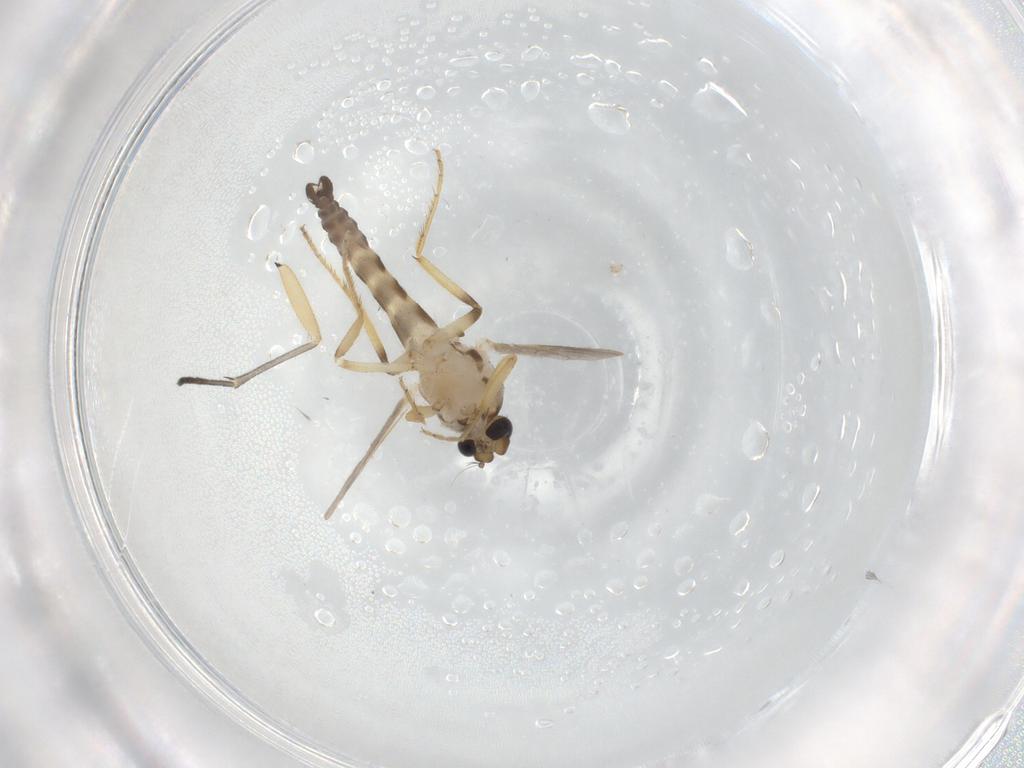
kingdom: Animalia
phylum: Arthropoda
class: Insecta
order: Diptera
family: Ceratopogonidae
